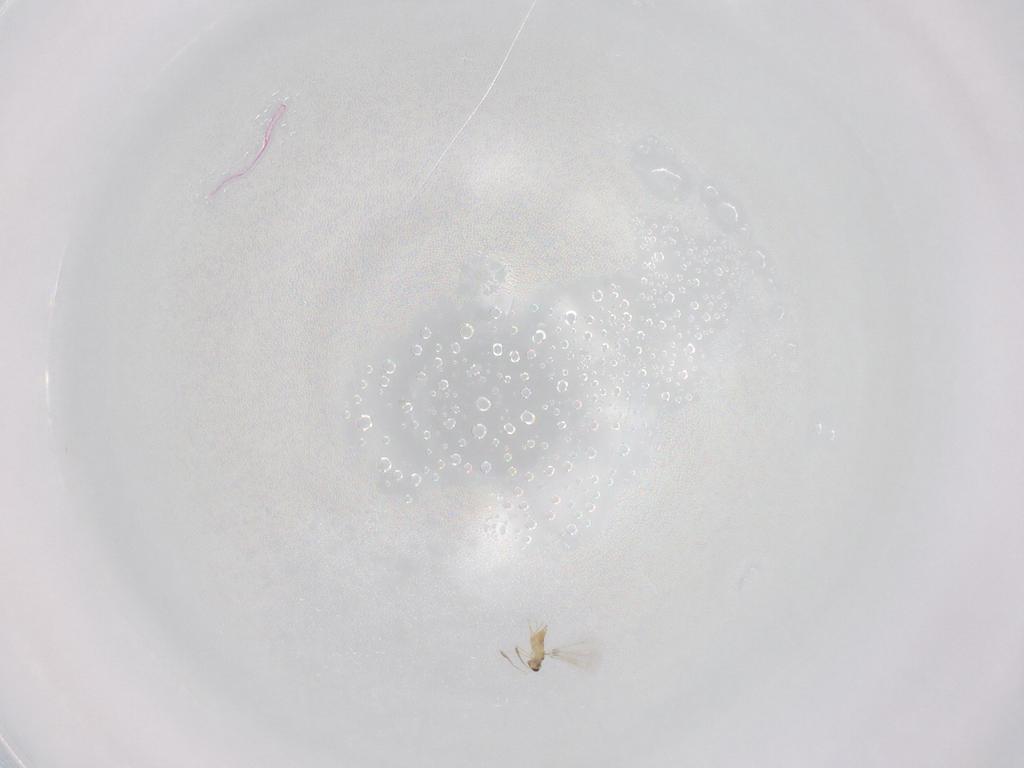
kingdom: Animalia
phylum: Arthropoda
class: Insecta
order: Hymenoptera
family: Mymaridae
